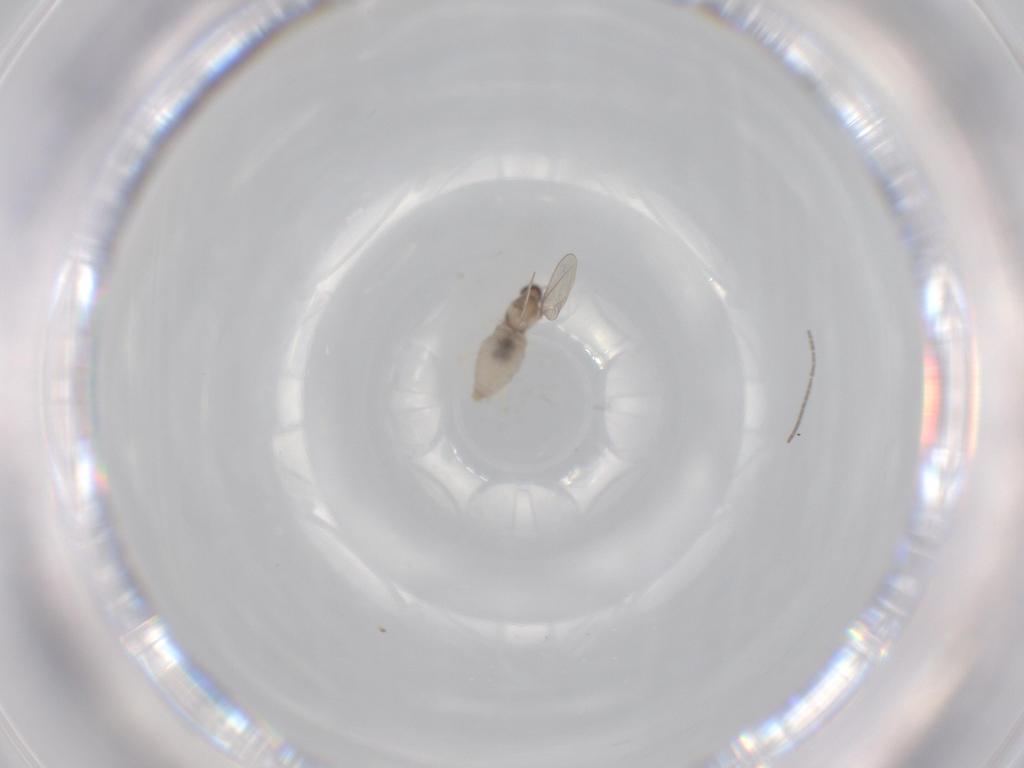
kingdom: Animalia
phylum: Arthropoda
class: Insecta
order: Diptera
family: Cecidomyiidae
